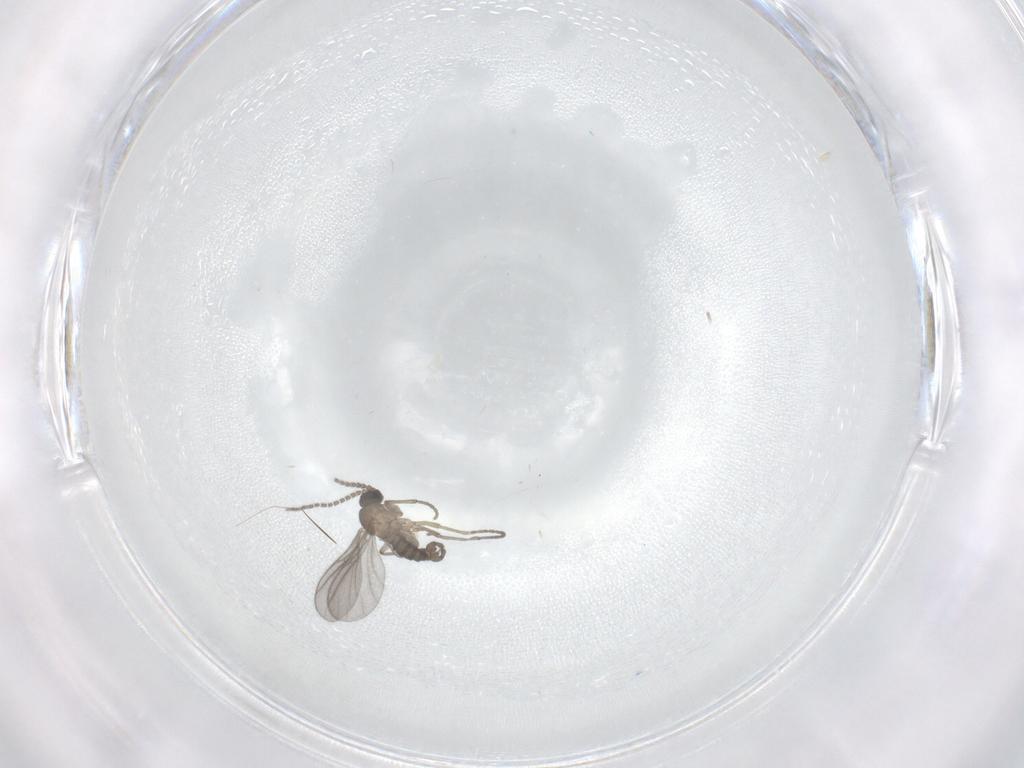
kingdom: Animalia
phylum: Arthropoda
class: Insecta
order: Diptera
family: Sciaridae
